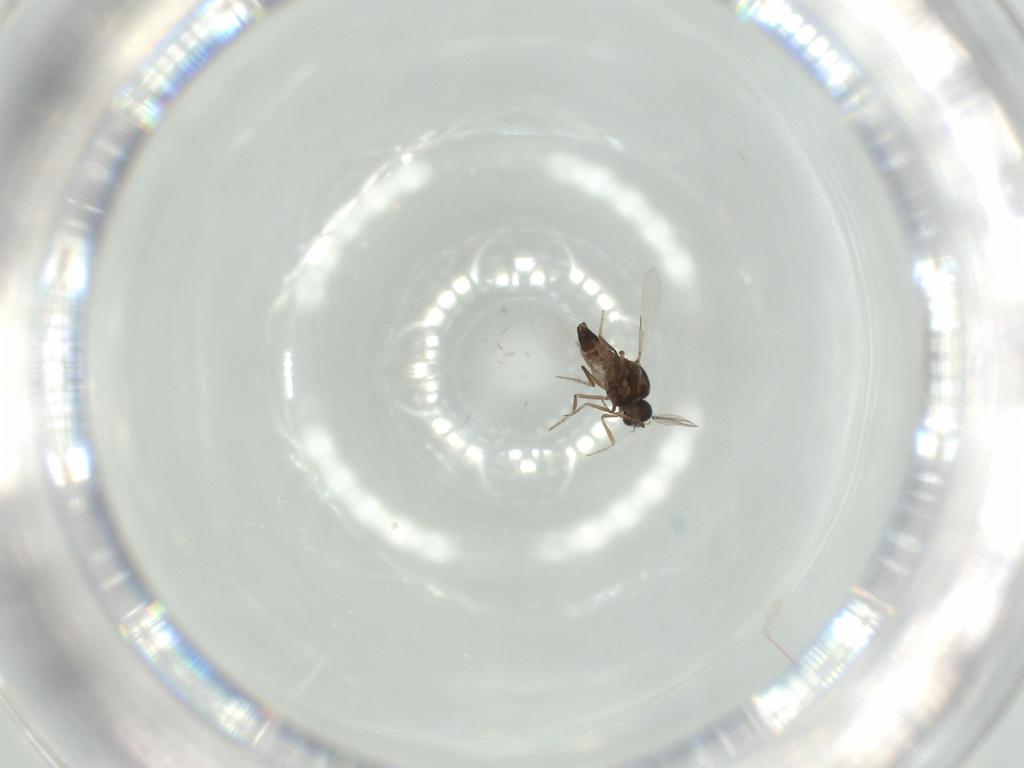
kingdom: Animalia
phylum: Arthropoda
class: Insecta
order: Diptera
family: Ceratopogonidae
